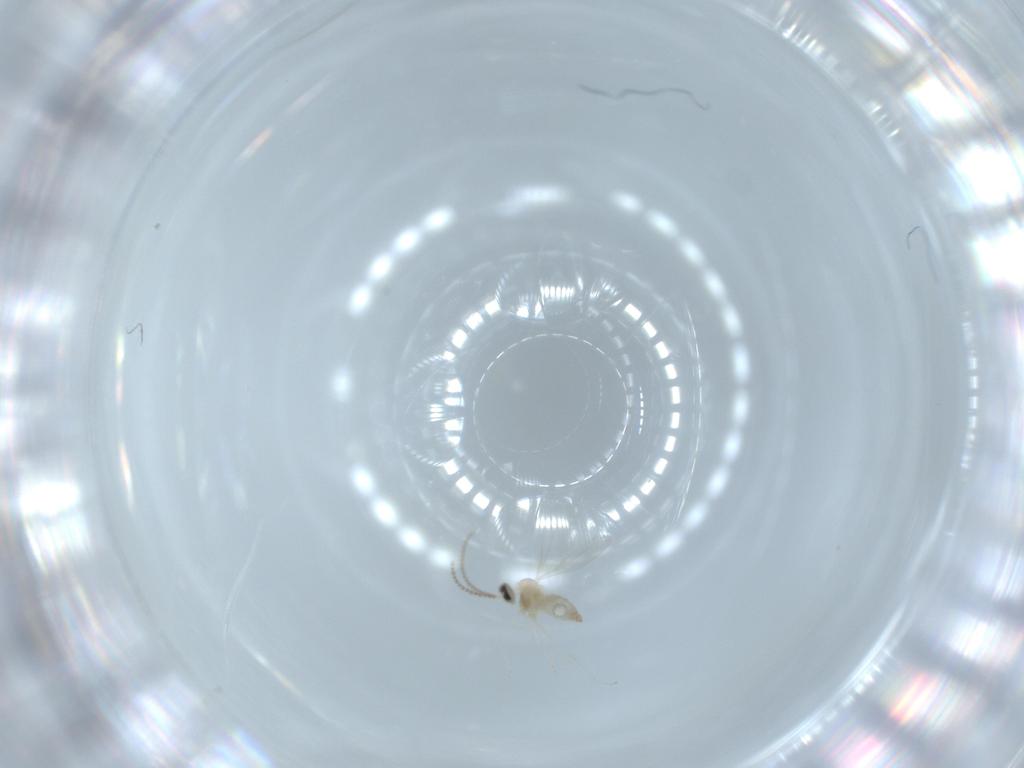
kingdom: Animalia
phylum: Arthropoda
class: Insecta
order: Diptera
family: Cecidomyiidae
